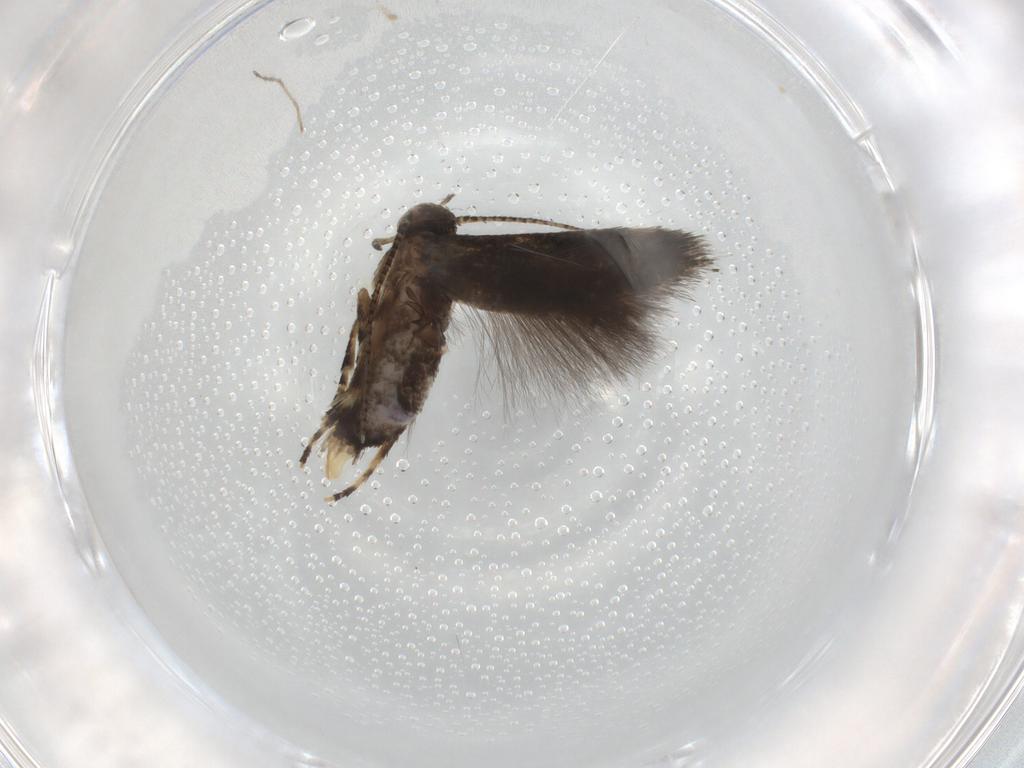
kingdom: Animalia
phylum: Arthropoda
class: Insecta
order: Lepidoptera
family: Elachistidae
